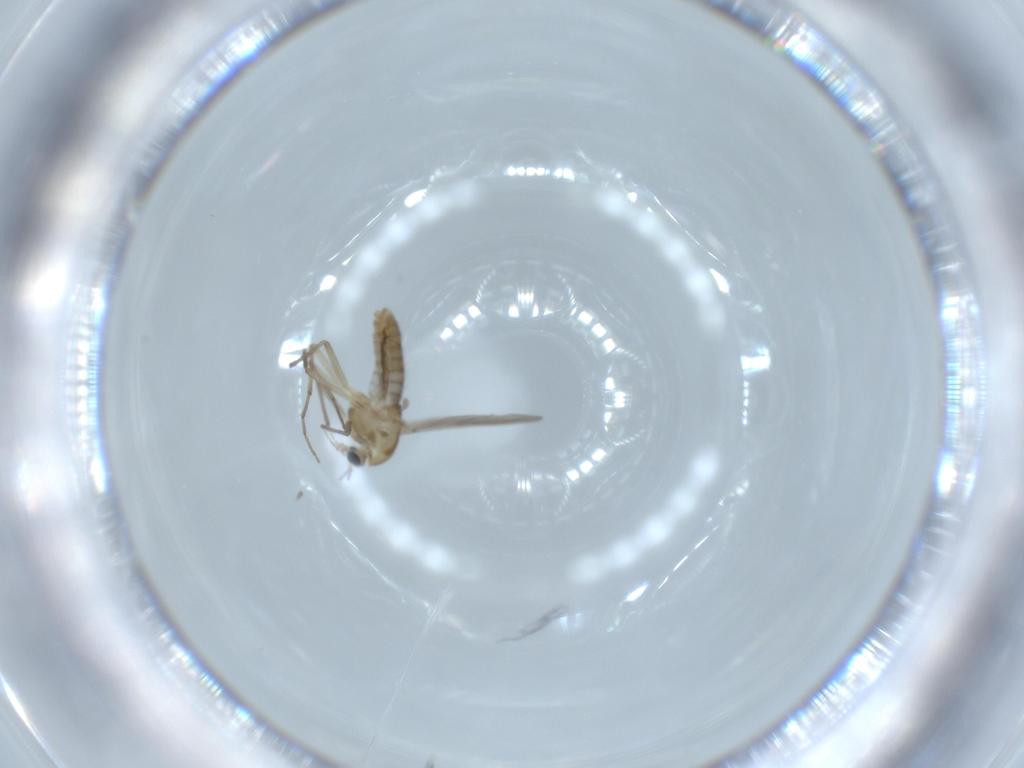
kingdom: Animalia
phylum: Arthropoda
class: Insecta
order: Diptera
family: Chironomidae
